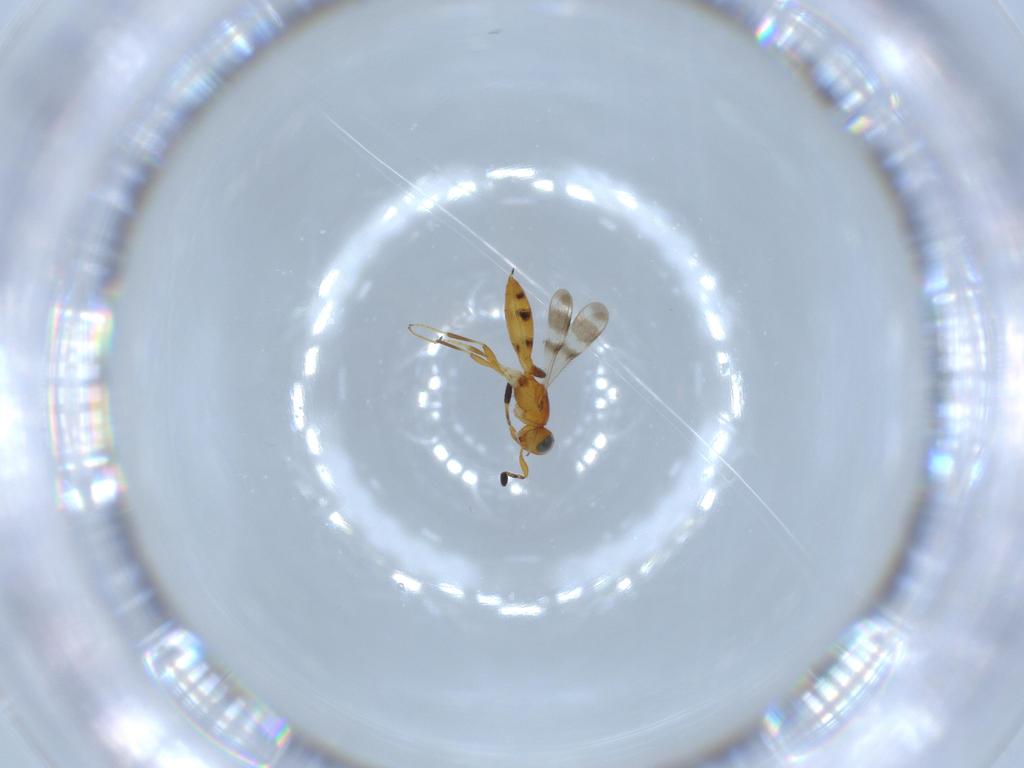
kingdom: Animalia
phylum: Arthropoda
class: Insecta
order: Hymenoptera
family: Scelionidae
